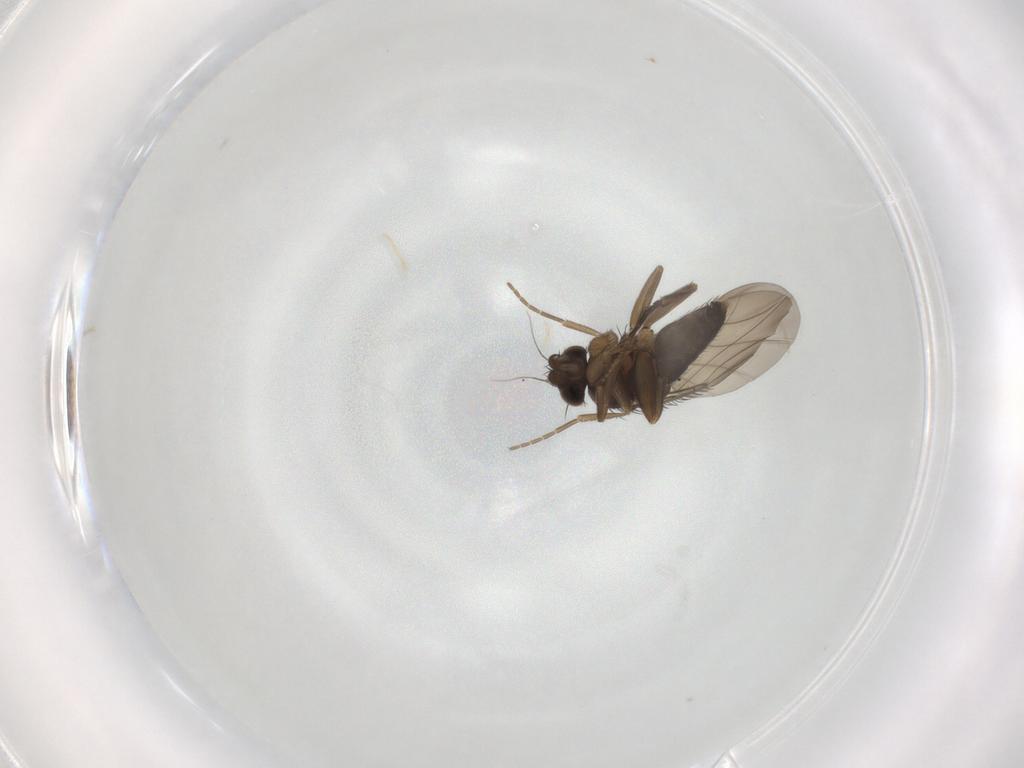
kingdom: Animalia
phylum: Arthropoda
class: Insecta
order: Diptera
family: Phoridae
